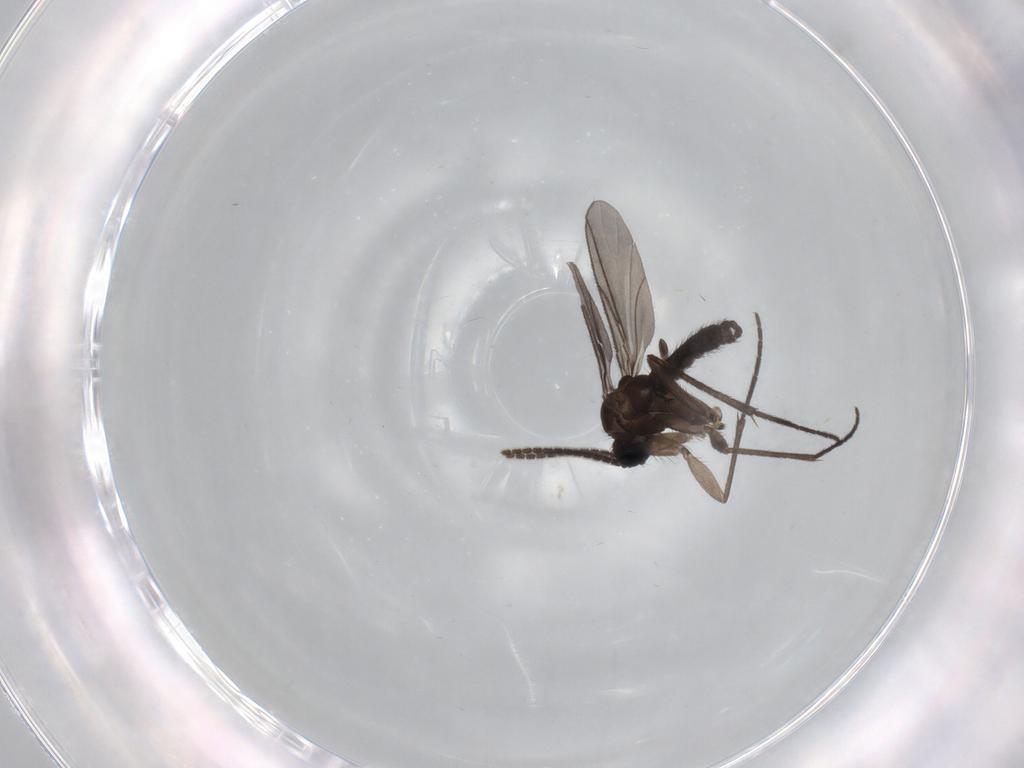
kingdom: Animalia
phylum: Arthropoda
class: Insecta
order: Diptera
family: Sciaridae
